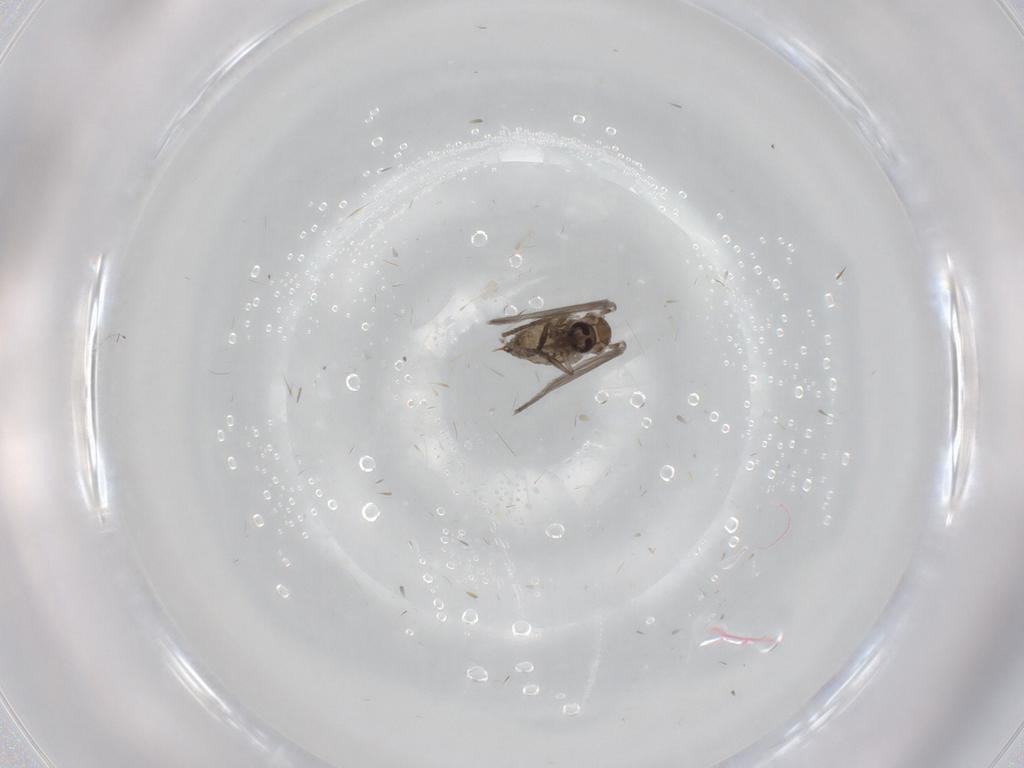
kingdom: Animalia
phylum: Arthropoda
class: Insecta
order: Diptera
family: Psychodidae
